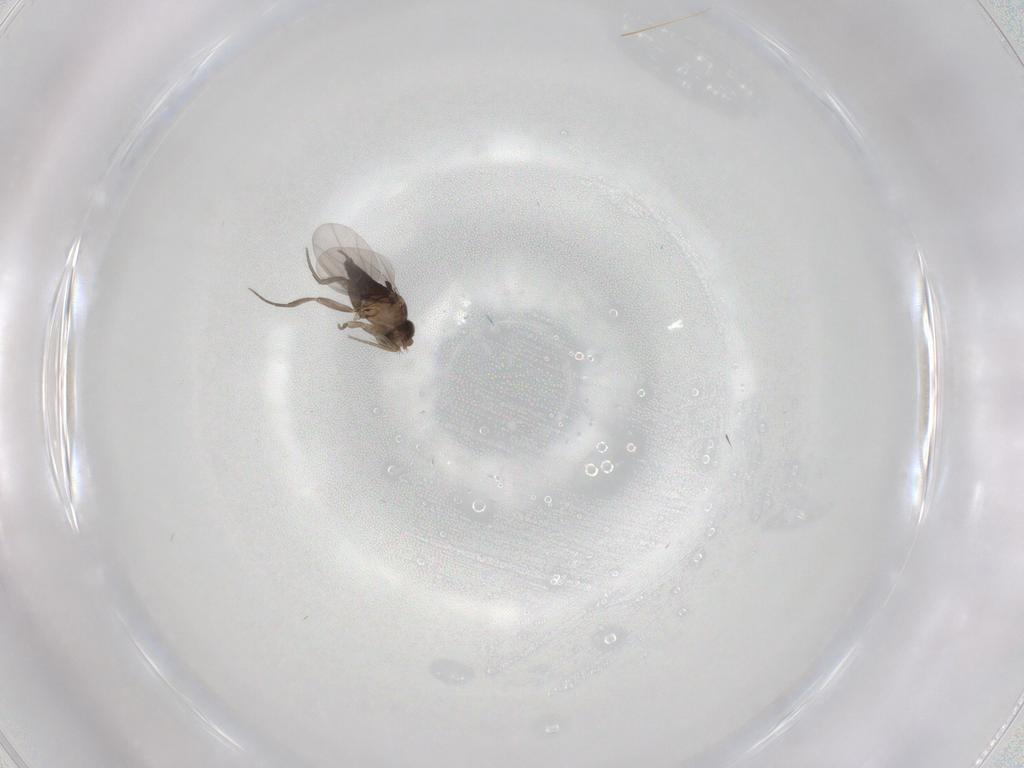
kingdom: Animalia
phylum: Arthropoda
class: Insecta
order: Diptera
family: Phoridae
